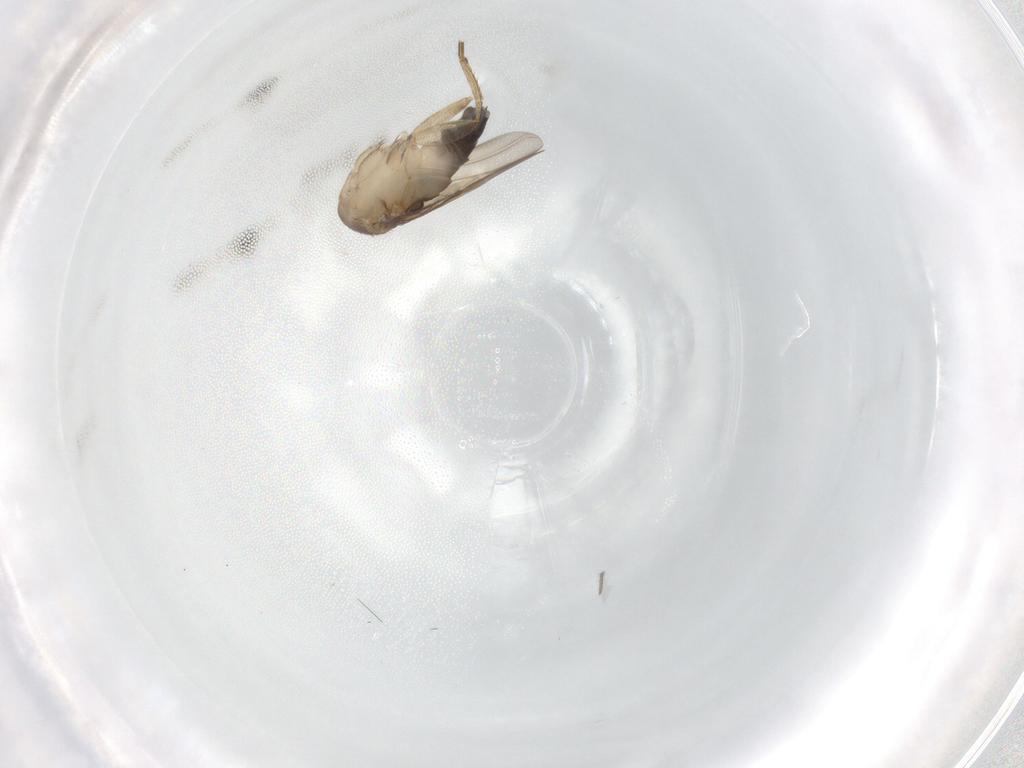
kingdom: Animalia
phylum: Arthropoda
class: Insecta
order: Diptera
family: Phoridae
